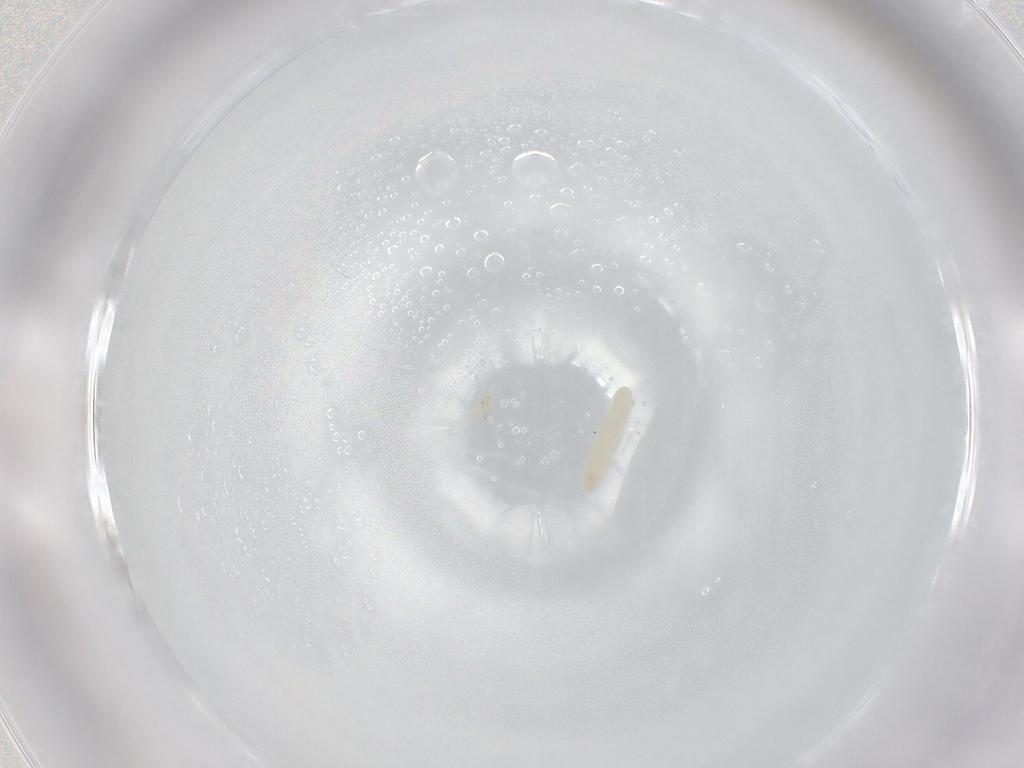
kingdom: Animalia
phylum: Arthropoda
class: Insecta
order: Diptera
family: Sarcophagidae
